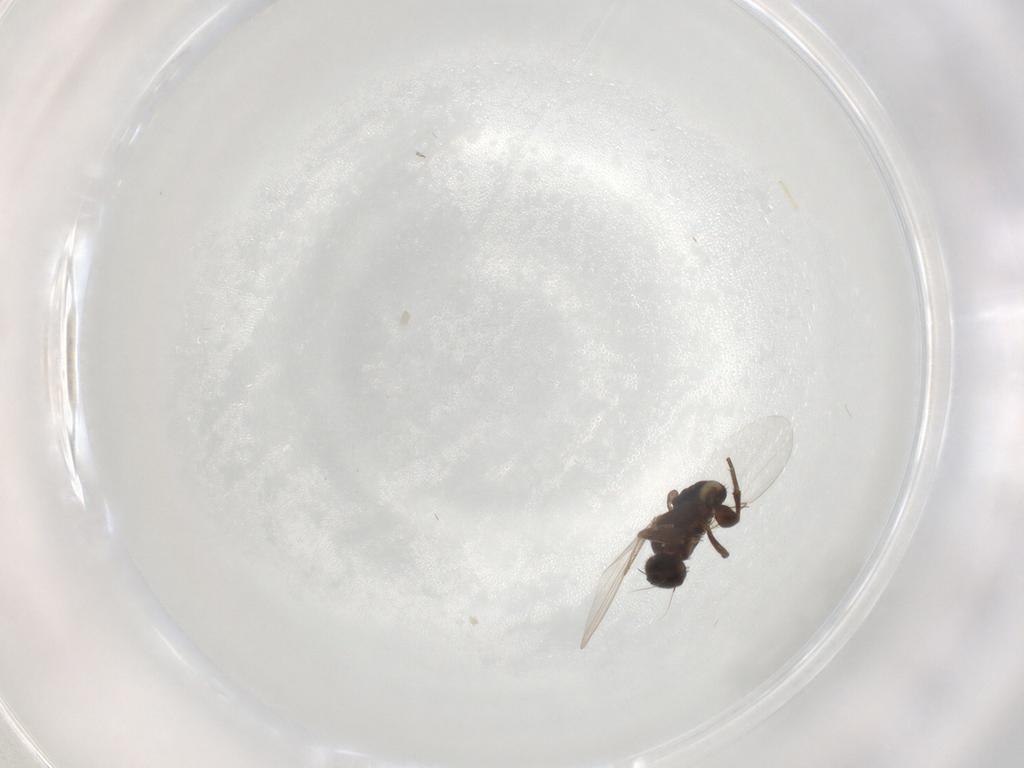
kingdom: Animalia
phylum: Arthropoda
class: Insecta
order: Diptera
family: Phoridae
